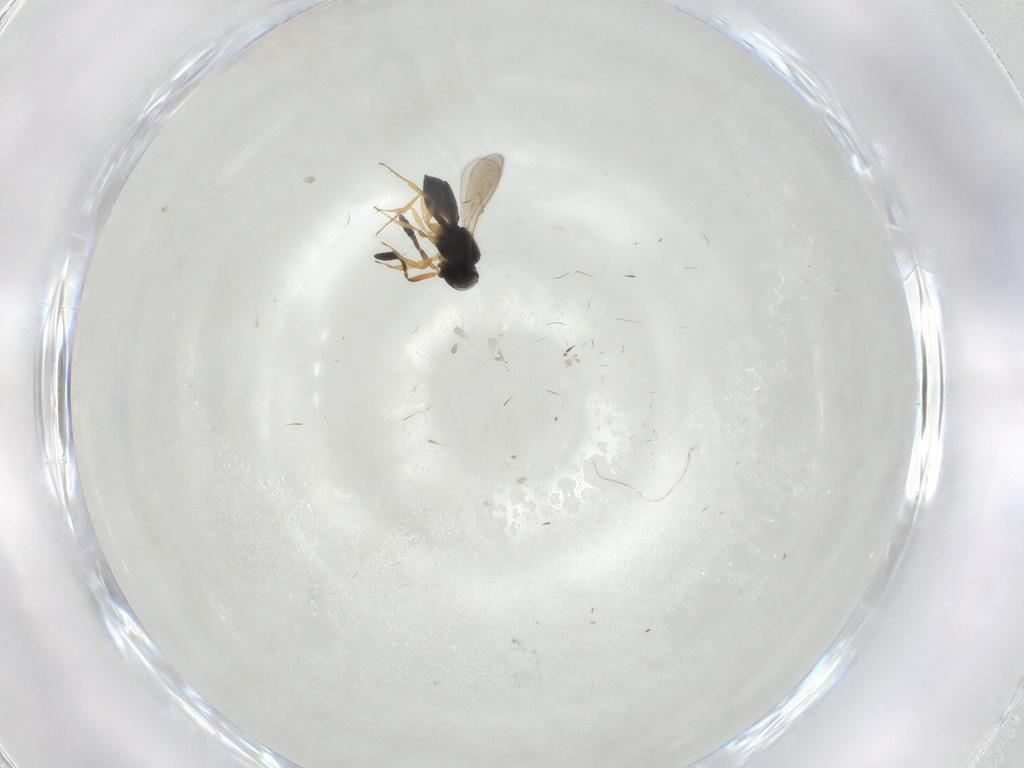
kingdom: Animalia
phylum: Arthropoda
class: Insecta
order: Hymenoptera
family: Scelionidae
